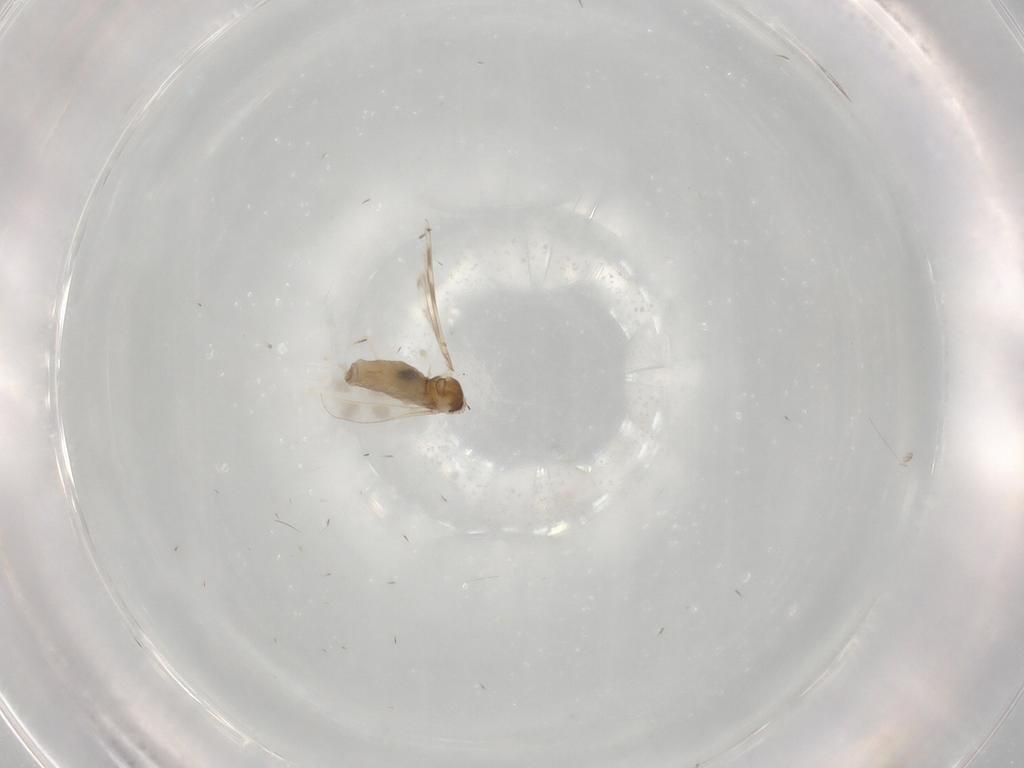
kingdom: Animalia
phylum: Arthropoda
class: Insecta
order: Diptera
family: Cecidomyiidae
